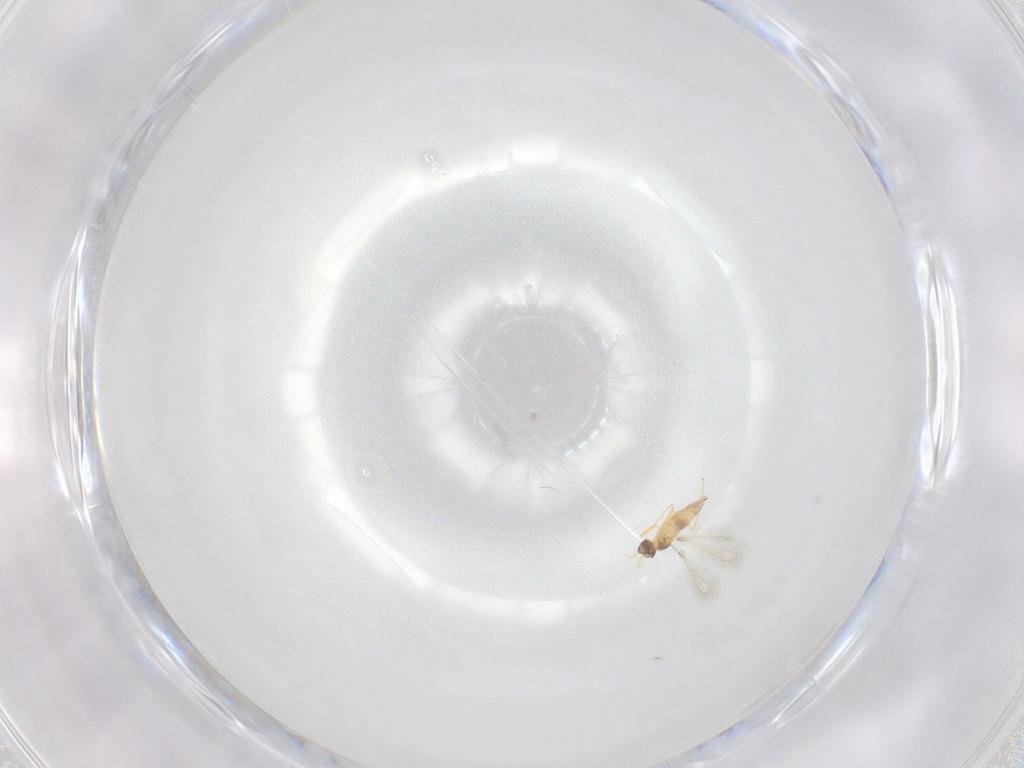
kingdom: Animalia
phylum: Arthropoda
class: Insecta
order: Hymenoptera
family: Mymaridae
